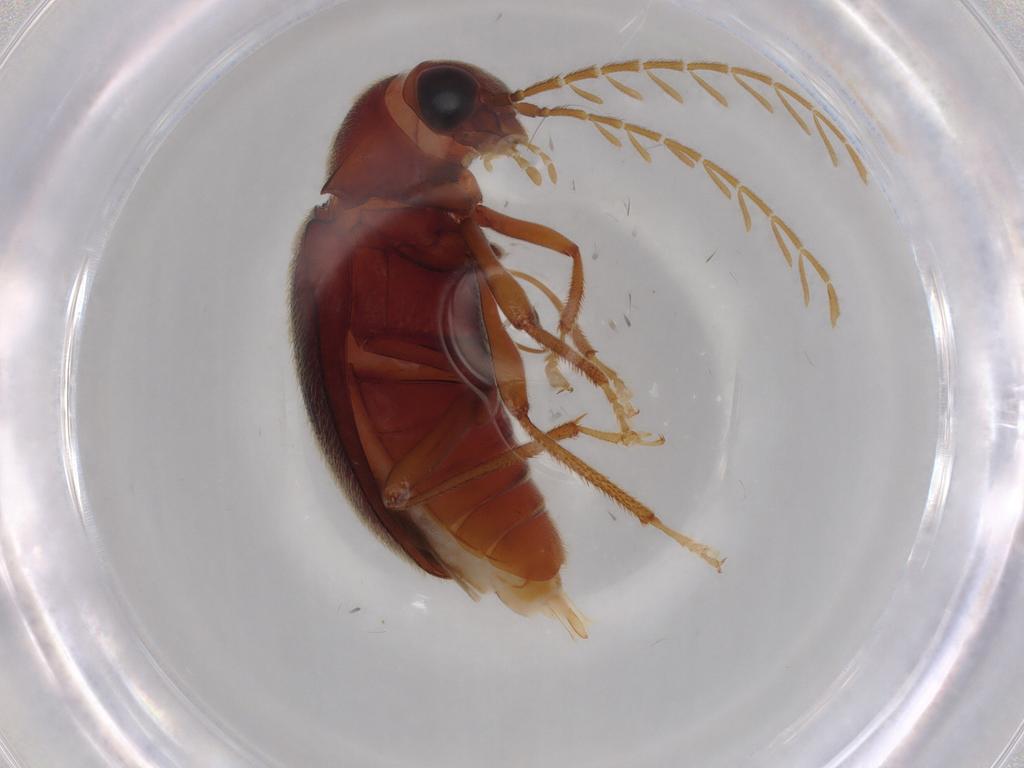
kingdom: Animalia
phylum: Arthropoda
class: Insecta
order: Coleoptera
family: Ptilodactylidae
